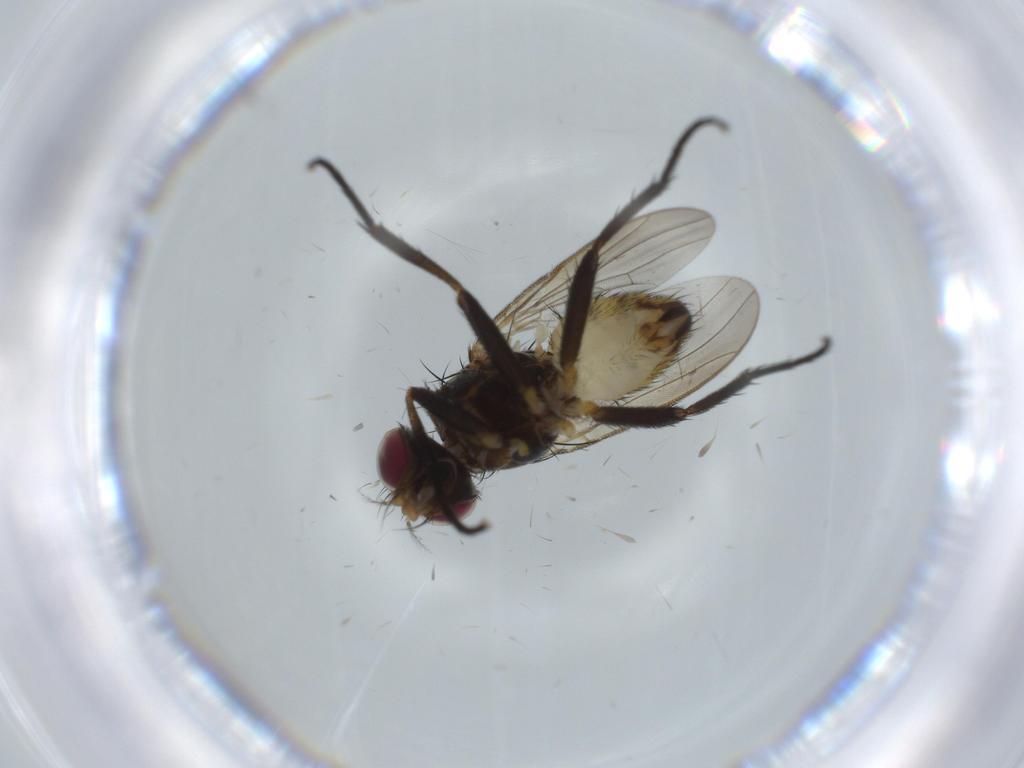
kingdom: Animalia
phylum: Arthropoda
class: Insecta
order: Diptera
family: Anthomyiidae
